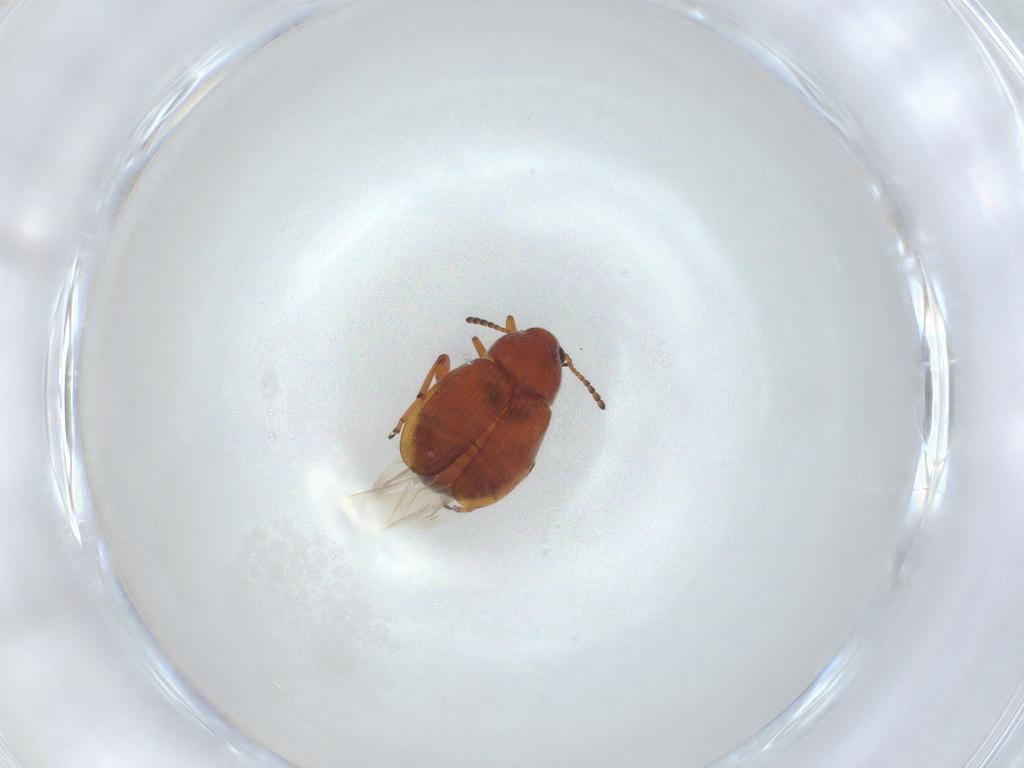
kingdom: Animalia
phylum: Arthropoda
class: Insecta
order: Coleoptera
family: Chrysomelidae
